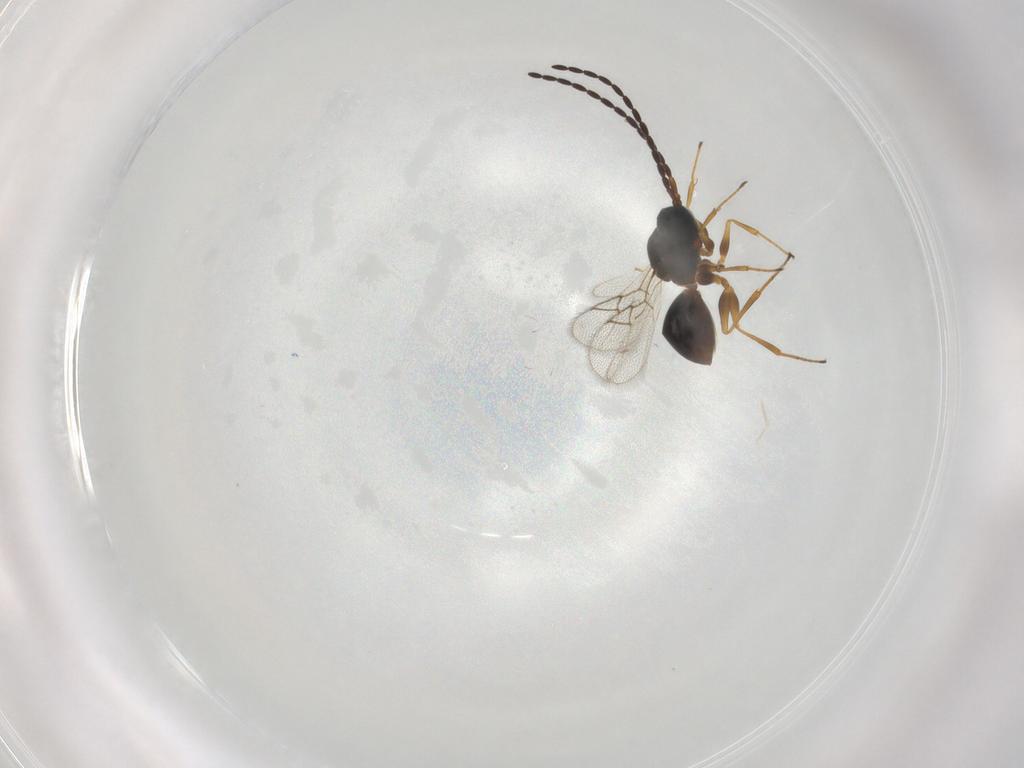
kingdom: Animalia
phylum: Arthropoda
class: Insecta
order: Hymenoptera
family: Figitidae
